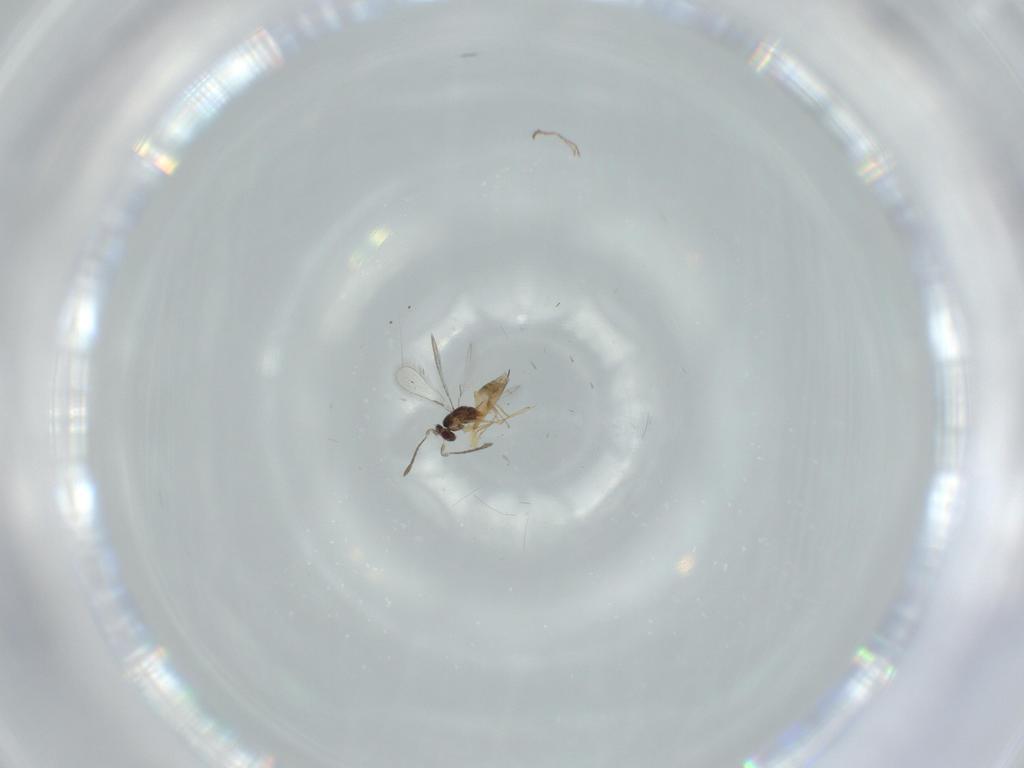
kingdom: Animalia
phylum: Arthropoda
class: Insecta
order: Hymenoptera
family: Mymaridae
